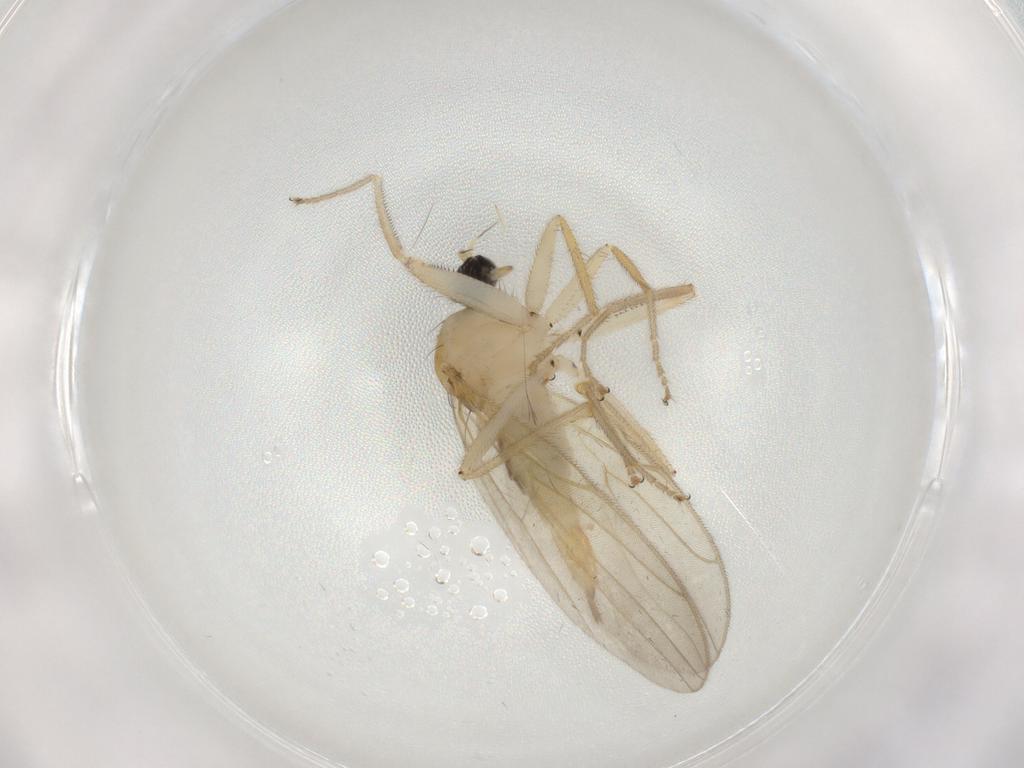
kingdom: Animalia
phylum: Arthropoda
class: Insecta
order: Diptera
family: Hybotidae
